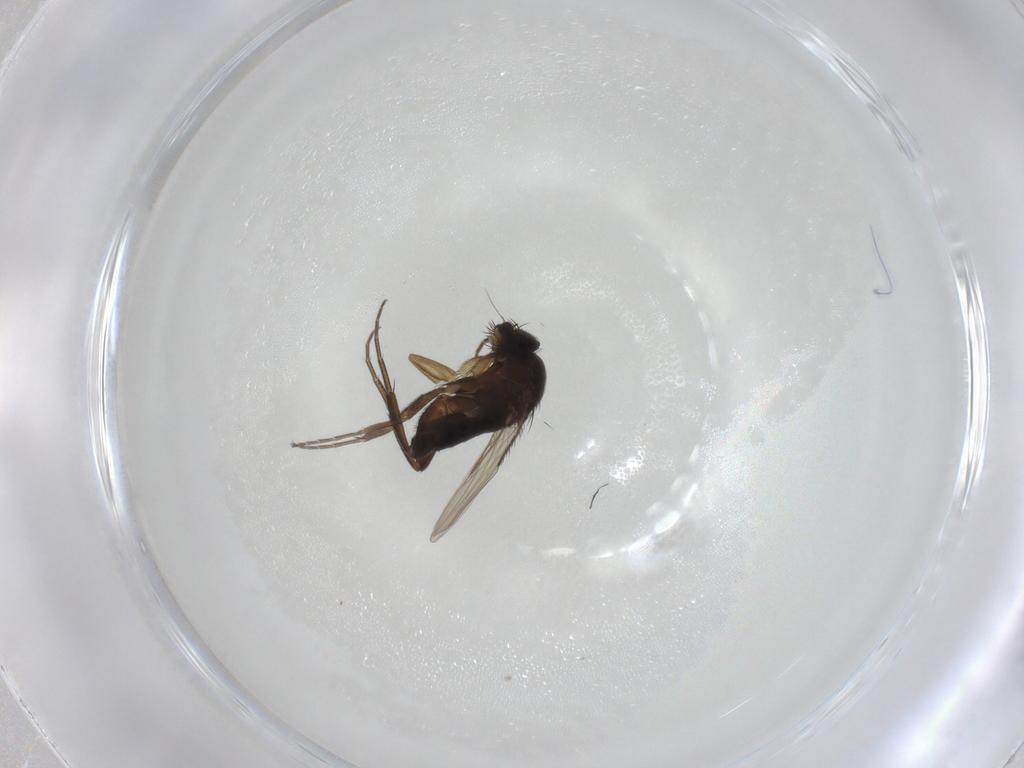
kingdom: Animalia
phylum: Arthropoda
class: Insecta
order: Diptera
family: Phoridae
